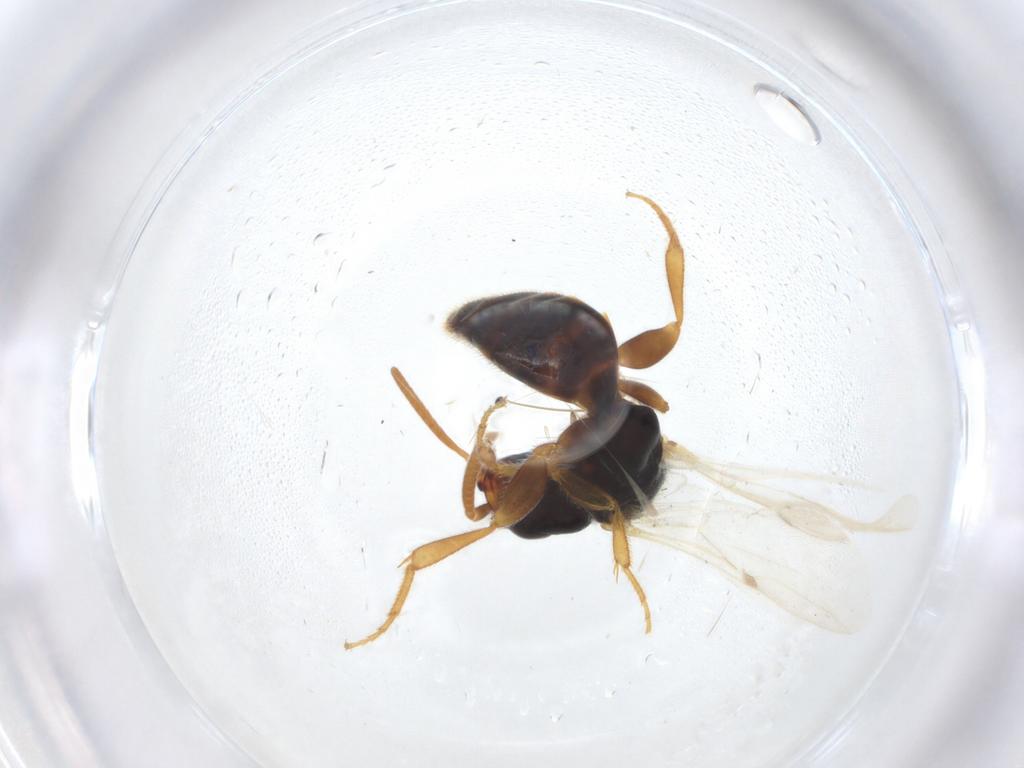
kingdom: Animalia
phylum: Arthropoda
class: Insecta
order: Hymenoptera
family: Bethylidae
